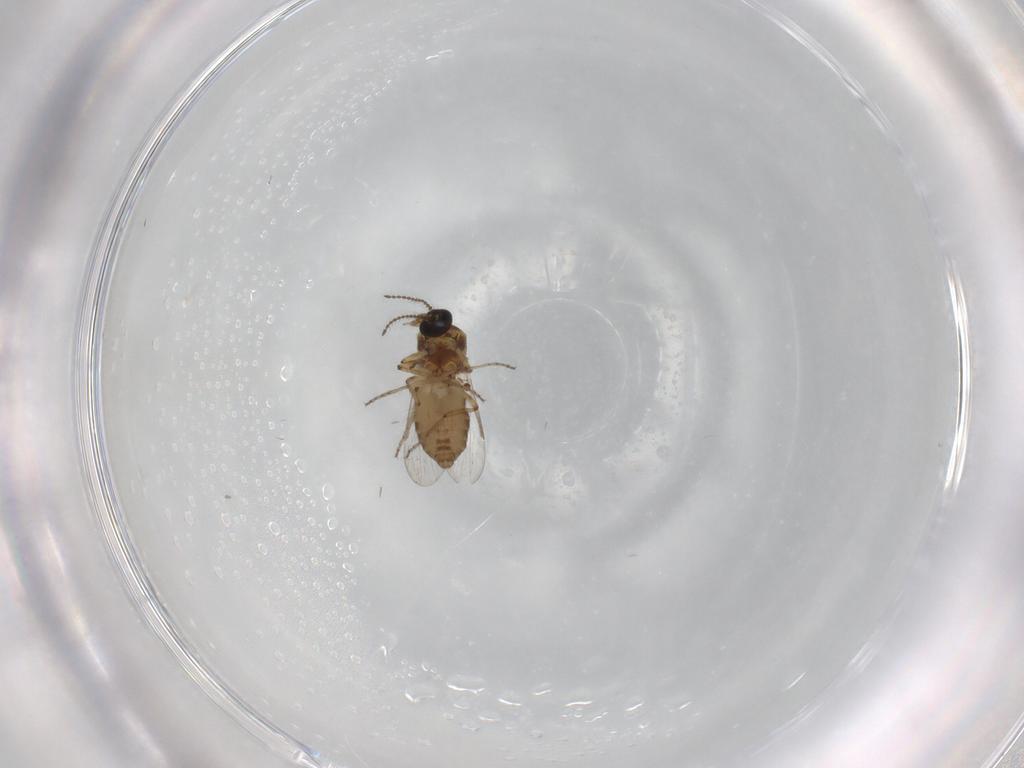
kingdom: Animalia
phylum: Arthropoda
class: Insecta
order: Diptera
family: Ceratopogonidae
